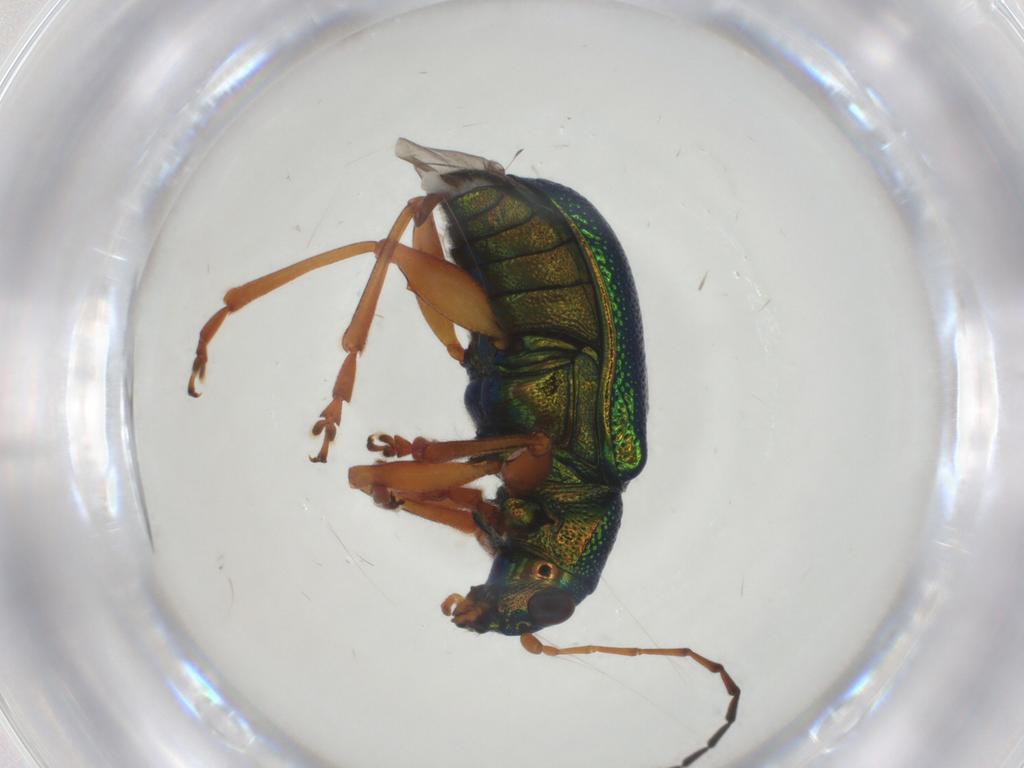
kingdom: Animalia
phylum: Arthropoda
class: Insecta
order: Coleoptera
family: Chrysomelidae
